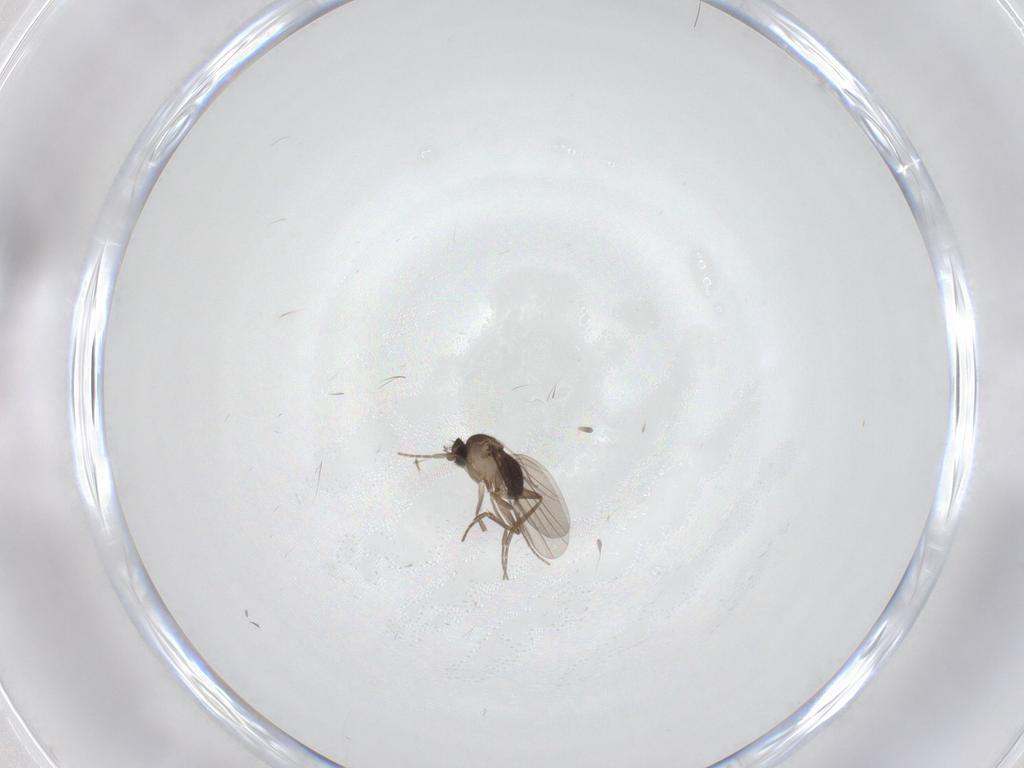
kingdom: Animalia
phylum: Arthropoda
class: Insecta
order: Diptera
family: Phoridae
